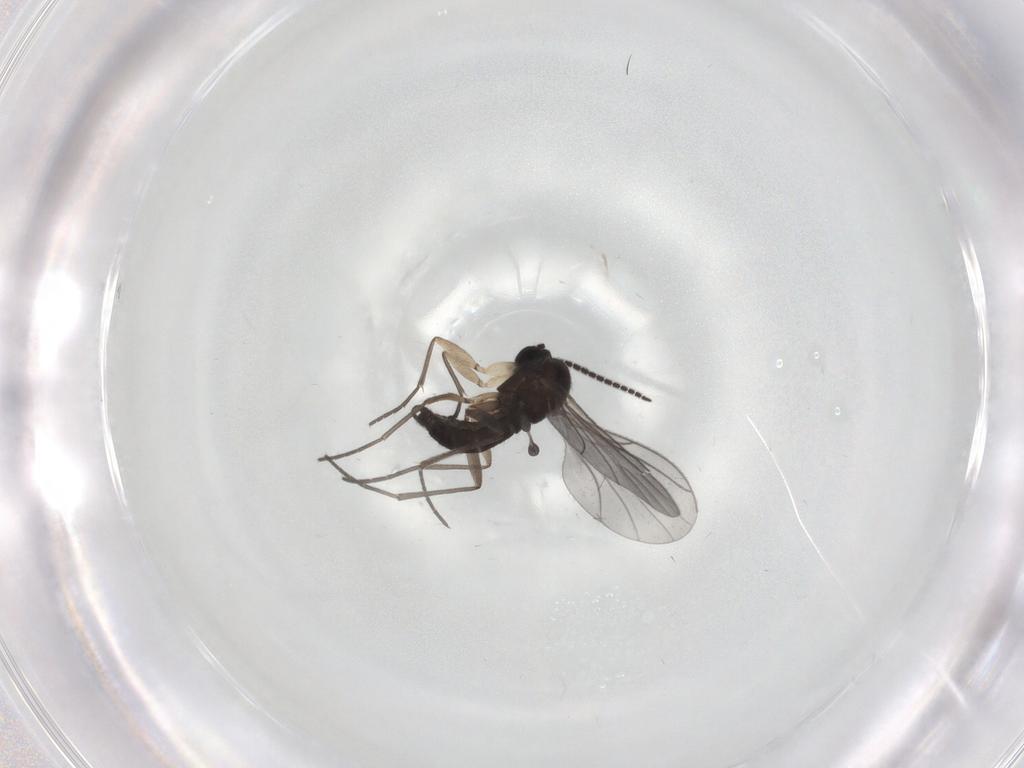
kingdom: Animalia
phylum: Arthropoda
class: Insecta
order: Diptera
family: Sciaridae
